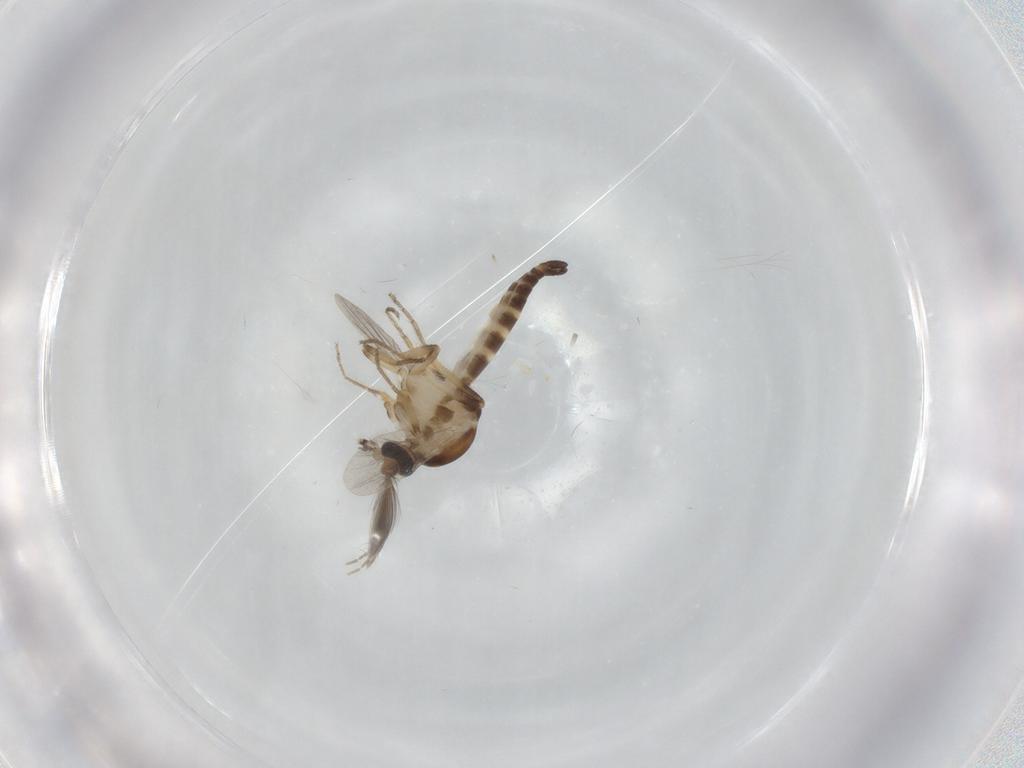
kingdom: Animalia
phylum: Arthropoda
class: Insecta
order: Diptera
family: Ceratopogonidae
